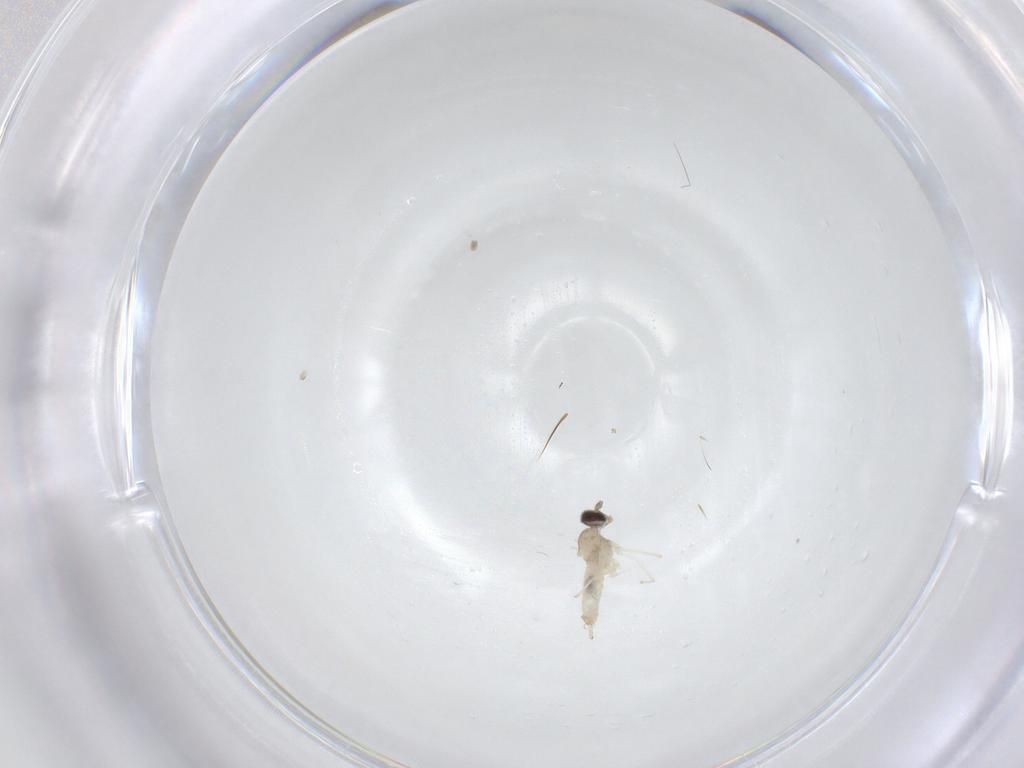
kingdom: Animalia
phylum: Arthropoda
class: Insecta
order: Diptera
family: Cecidomyiidae
